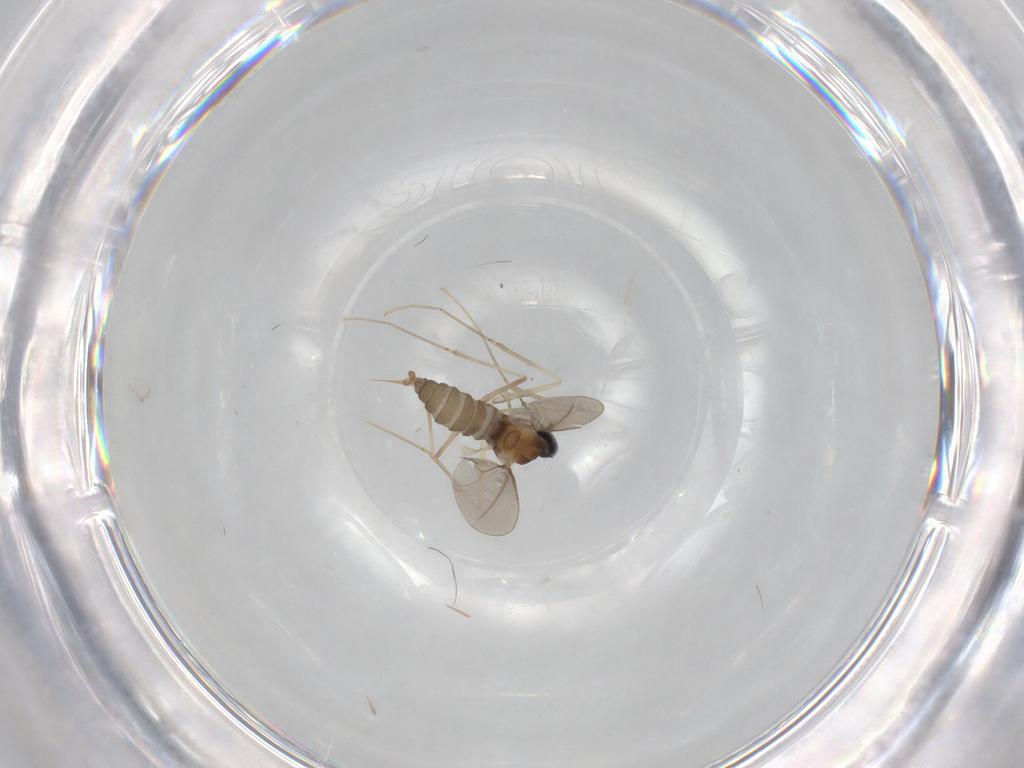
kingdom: Animalia
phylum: Arthropoda
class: Insecta
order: Diptera
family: Cecidomyiidae
